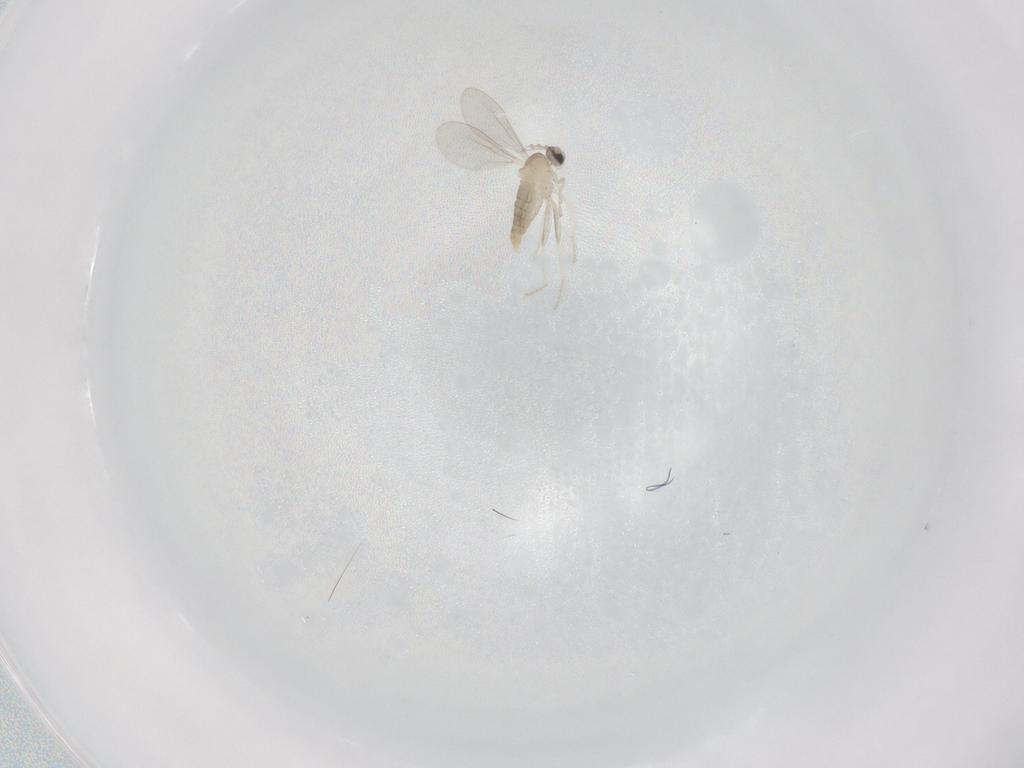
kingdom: Animalia
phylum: Arthropoda
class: Insecta
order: Diptera
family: Cecidomyiidae
